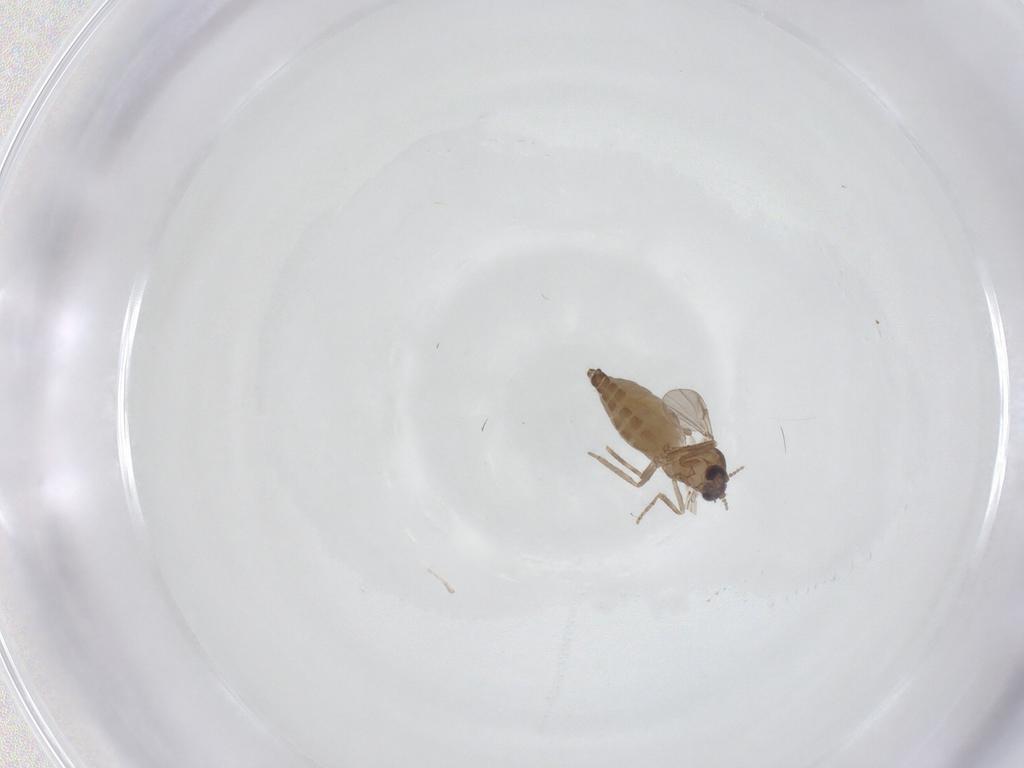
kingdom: Animalia
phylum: Arthropoda
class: Insecta
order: Diptera
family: Ceratopogonidae
